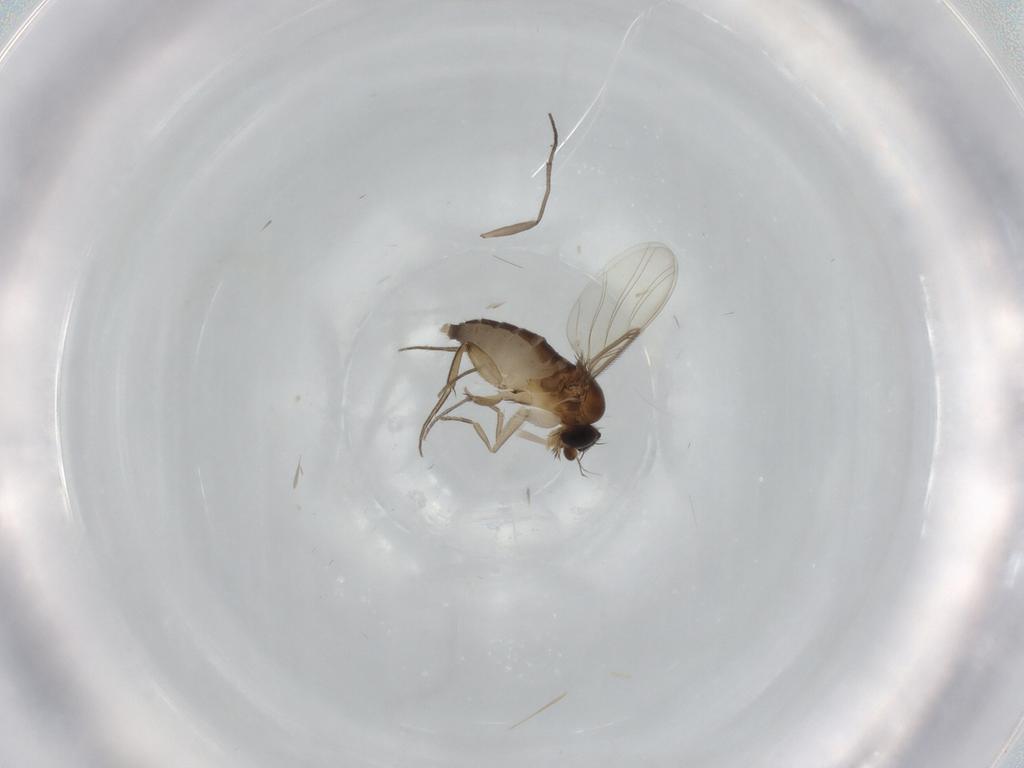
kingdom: Animalia
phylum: Arthropoda
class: Insecta
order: Diptera
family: Phoridae
